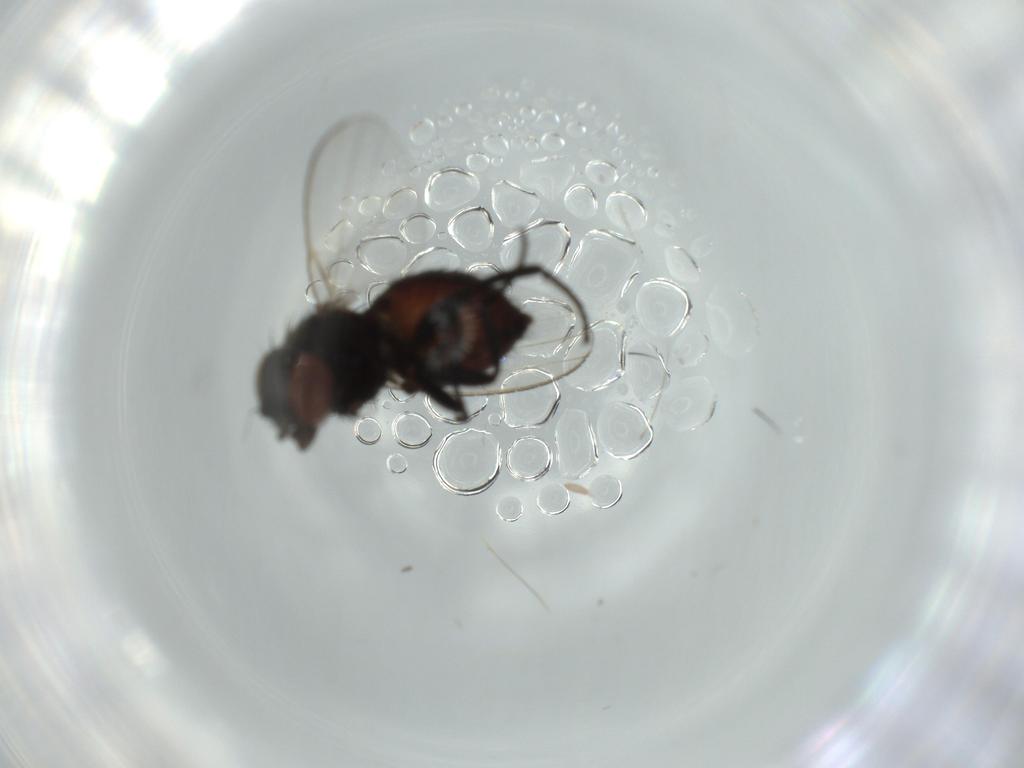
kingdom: Animalia
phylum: Arthropoda
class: Insecta
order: Diptera
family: Milichiidae
